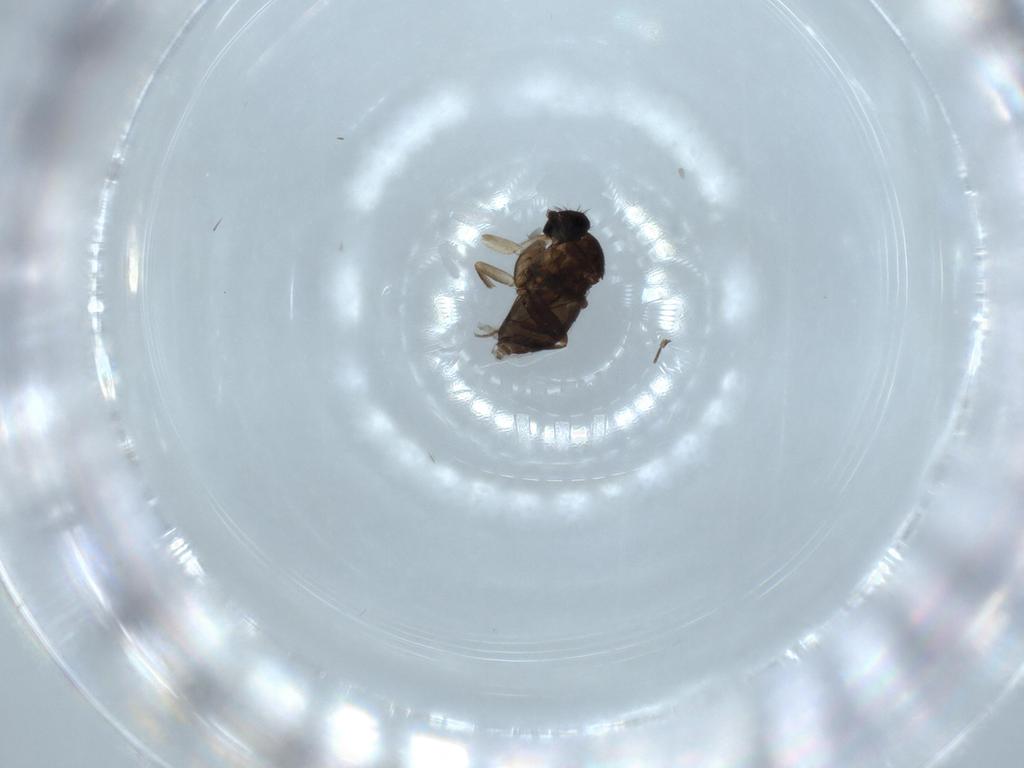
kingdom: Animalia
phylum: Arthropoda
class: Insecta
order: Diptera
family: Phoridae
